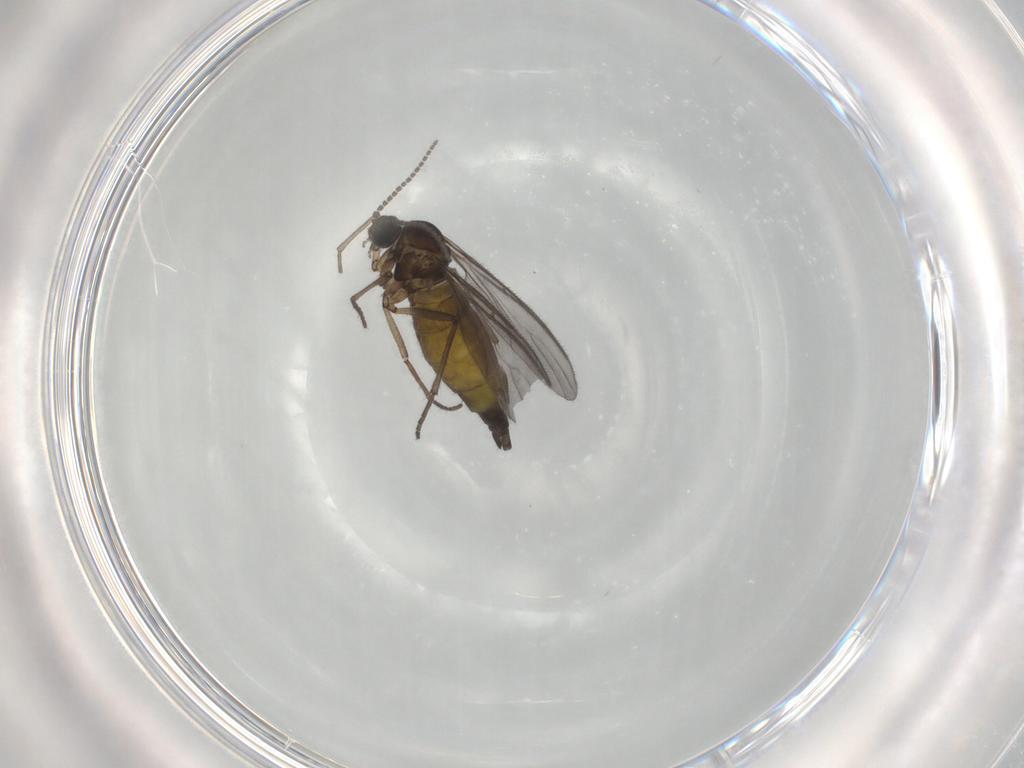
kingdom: Animalia
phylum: Arthropoda
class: Insecta
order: Diptera
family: Sciaridae
